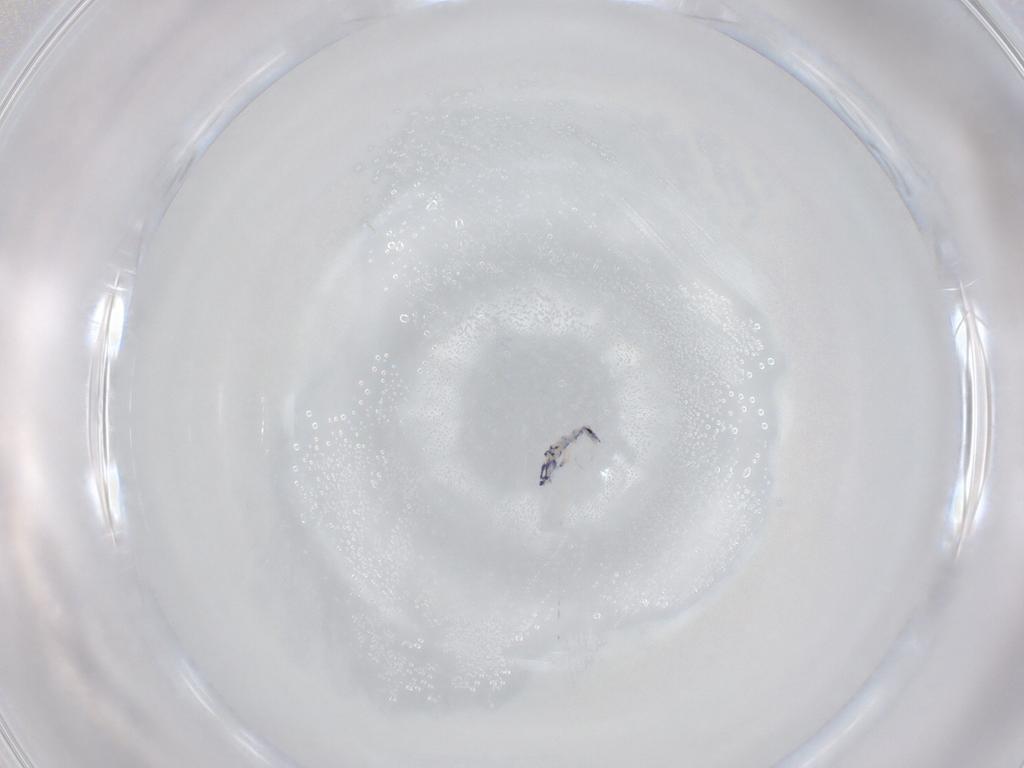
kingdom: Animalia
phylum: Arthropoda
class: Collembola
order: Entomobryomorpha
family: Entomobryidae
